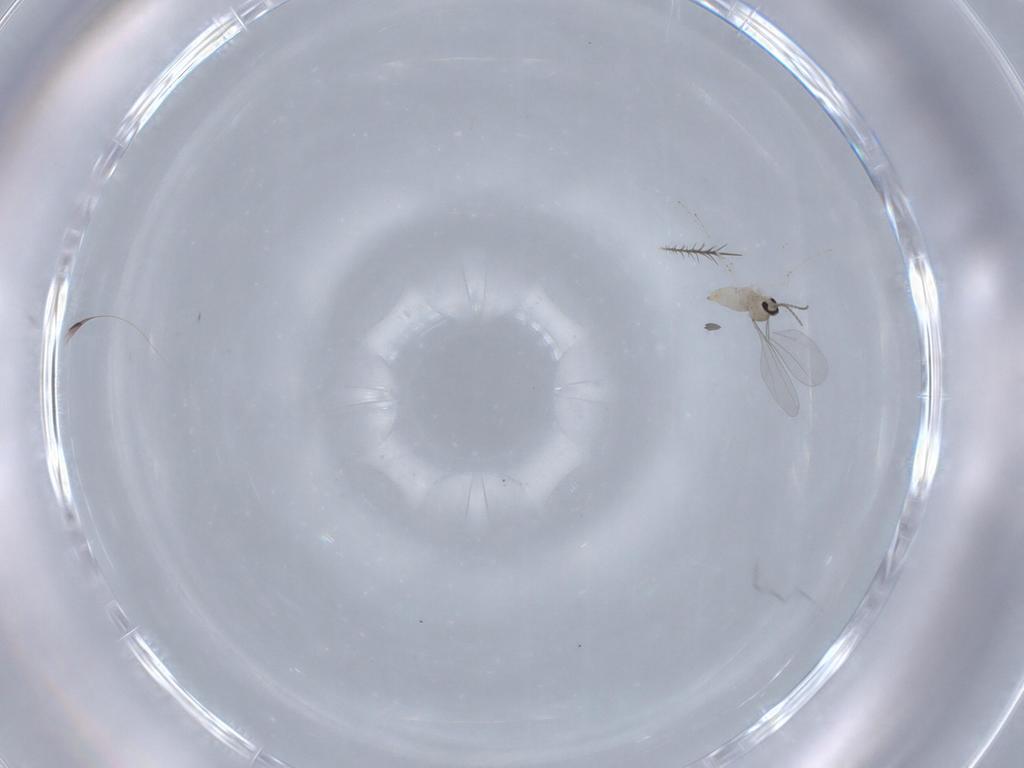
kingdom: Animalia
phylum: Arthropoda
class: Insecta
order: Diptera
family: Cecidomyiidae
